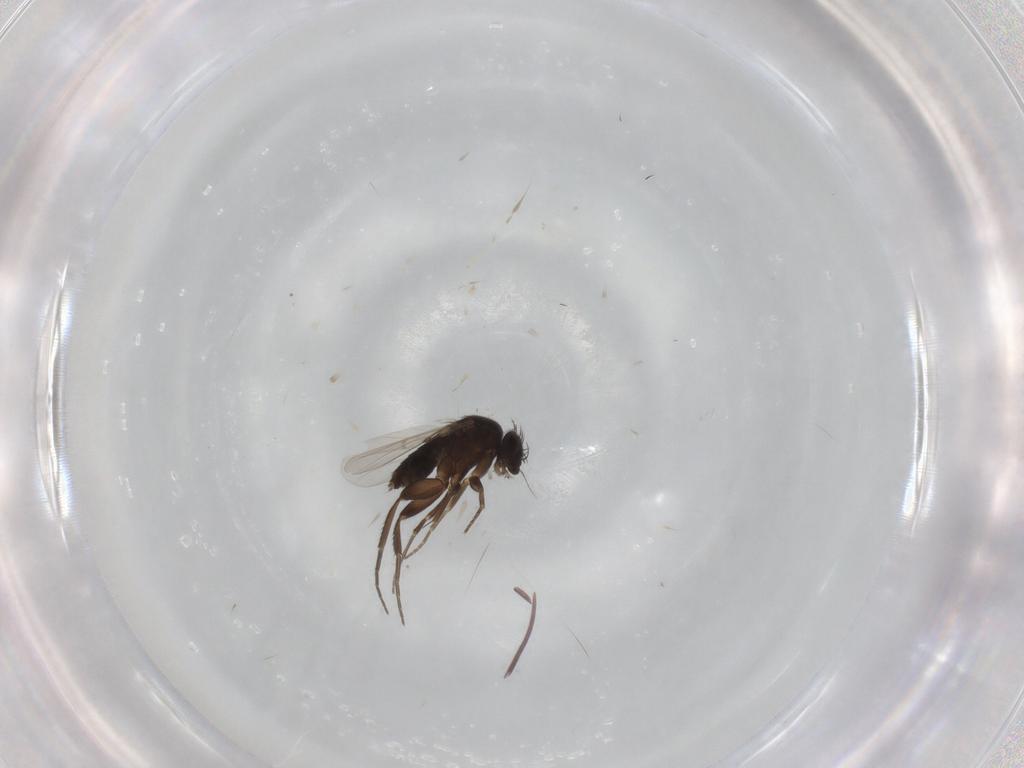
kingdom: Animalia
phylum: Arthropoda
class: Insecta
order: Diptera
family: Phoridae
